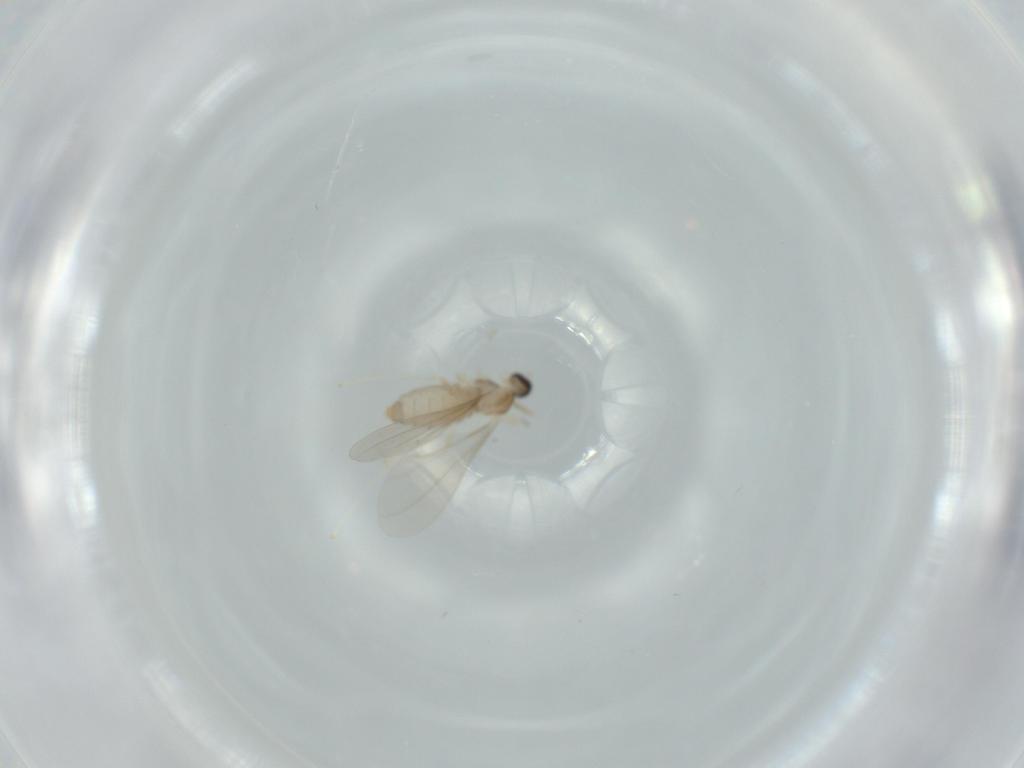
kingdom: Animalia
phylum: Arthropoda
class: Insecta
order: Diptera
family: Cecidomyiidae
